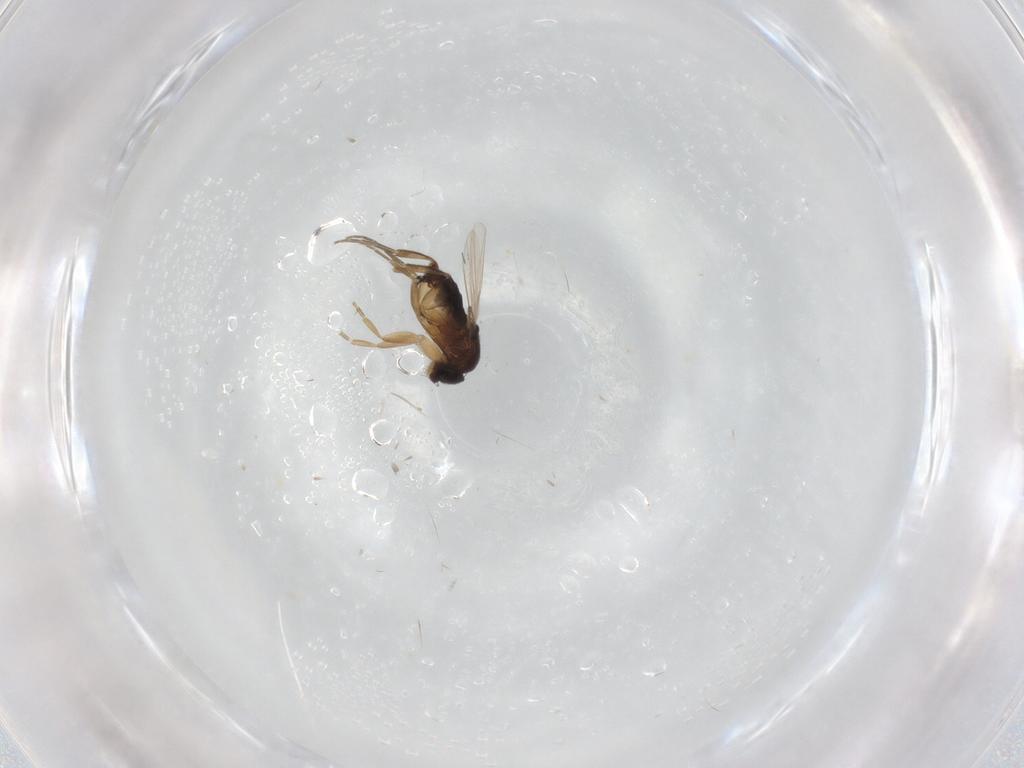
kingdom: Animalia
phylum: Arthropoda
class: Insecta
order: Diptera
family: Phoridae
